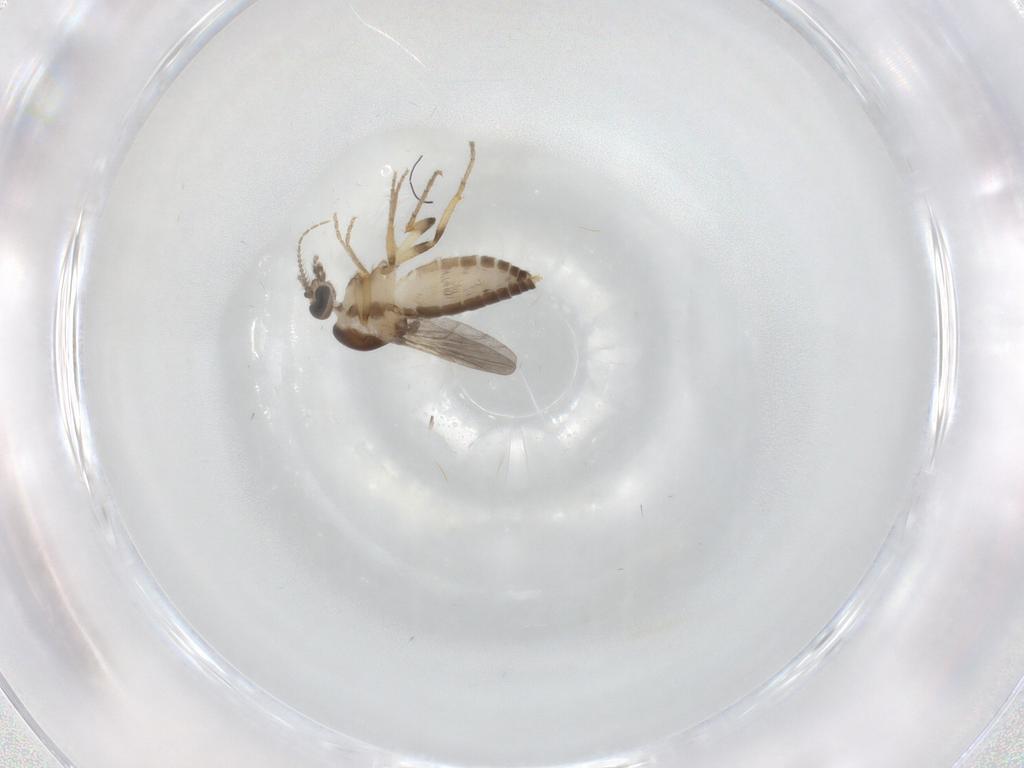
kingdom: Animalia
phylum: Arthropoda
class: Insecta
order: Diptera
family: Ceratopogonidae
